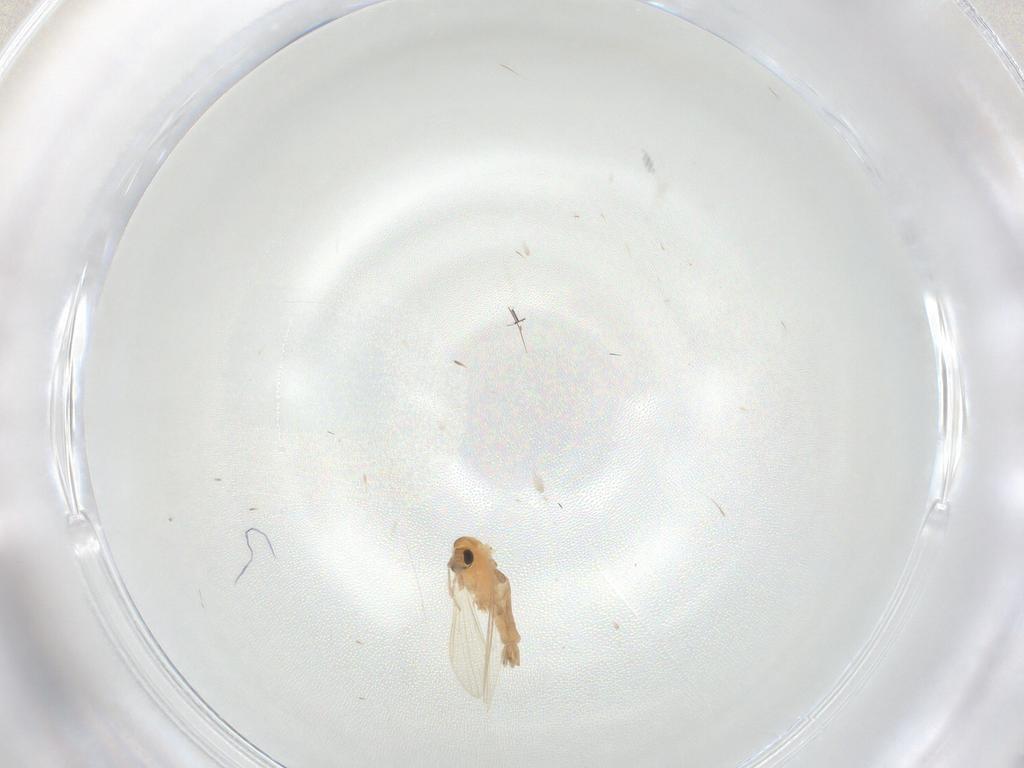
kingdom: Animalia
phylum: Arthropoda
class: Insecta
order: Diptera
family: Psychodidae
